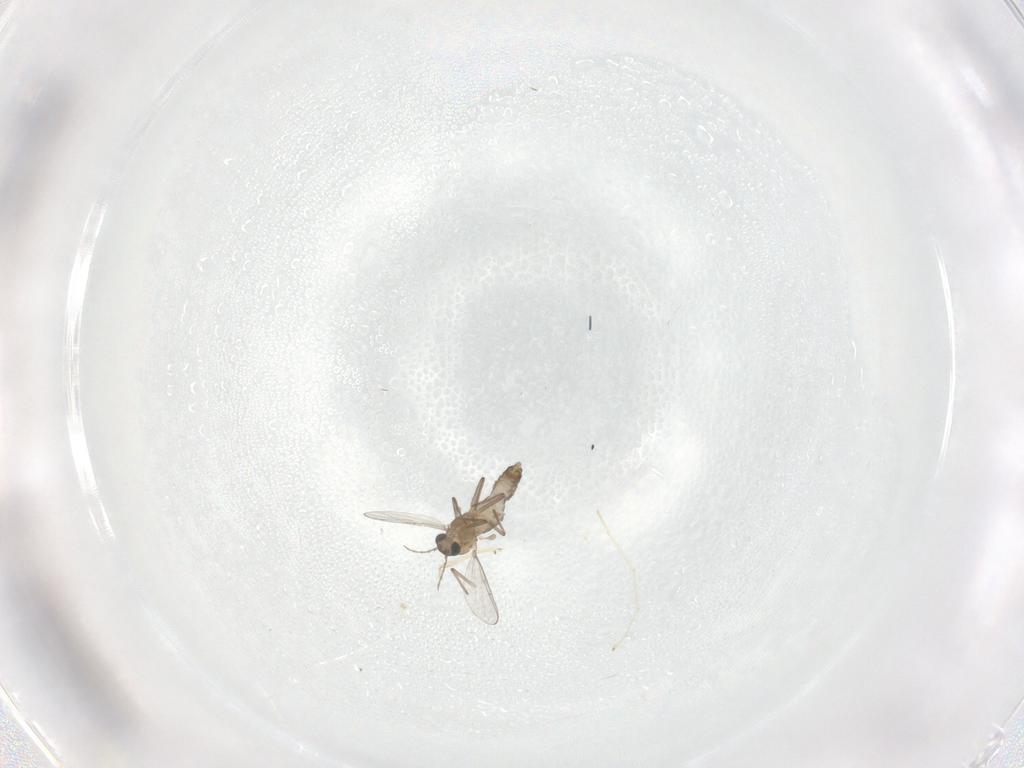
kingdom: Animalia
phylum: Arthropoda
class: Insecta
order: Diptera
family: Chironomidae
